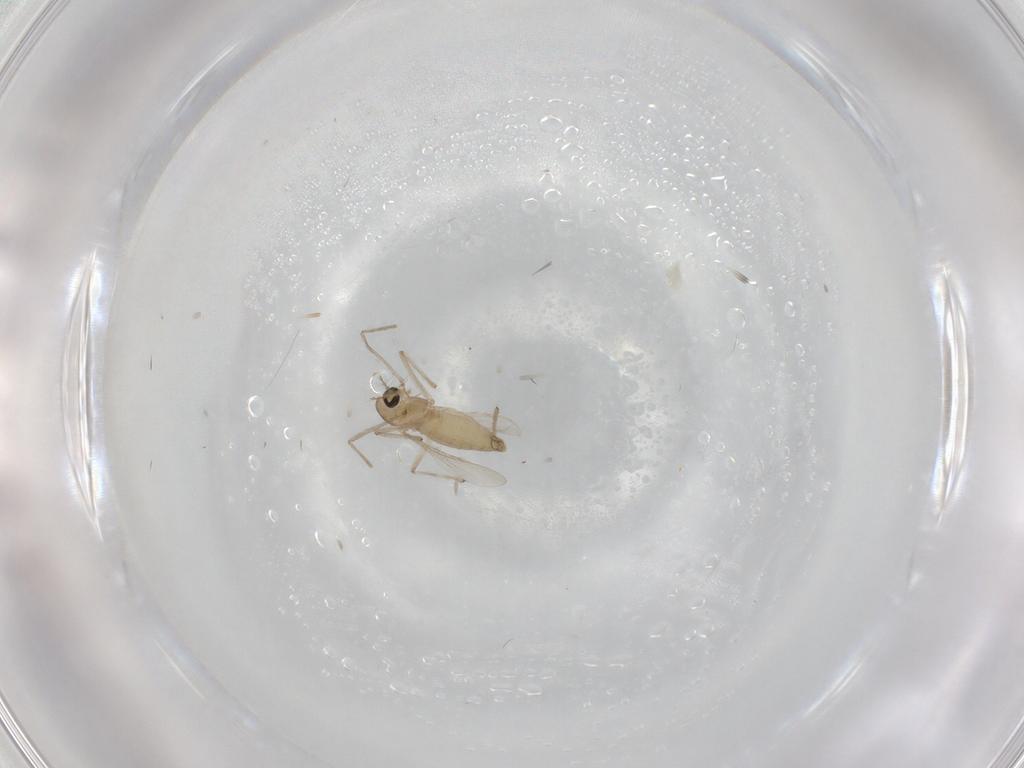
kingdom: Animalia
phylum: Arthropoda
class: Insecta
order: Diptera
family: Chironomidae
